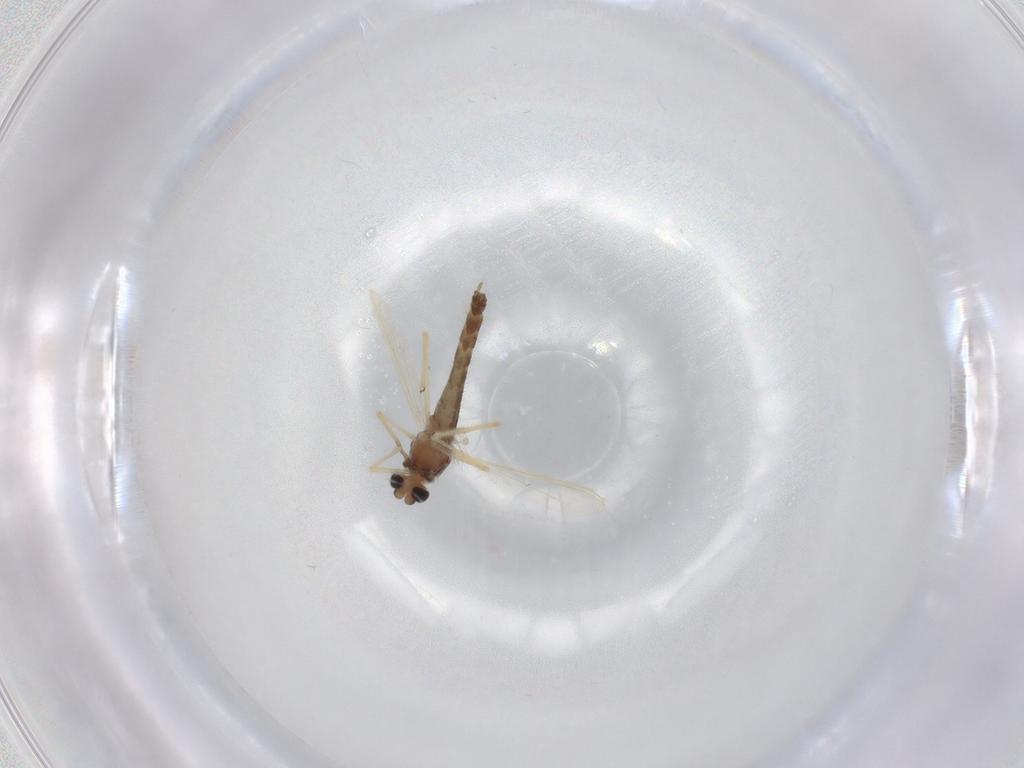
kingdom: Animalia
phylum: Arthropoda
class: Insecta
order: Diptera
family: Chironomidae
